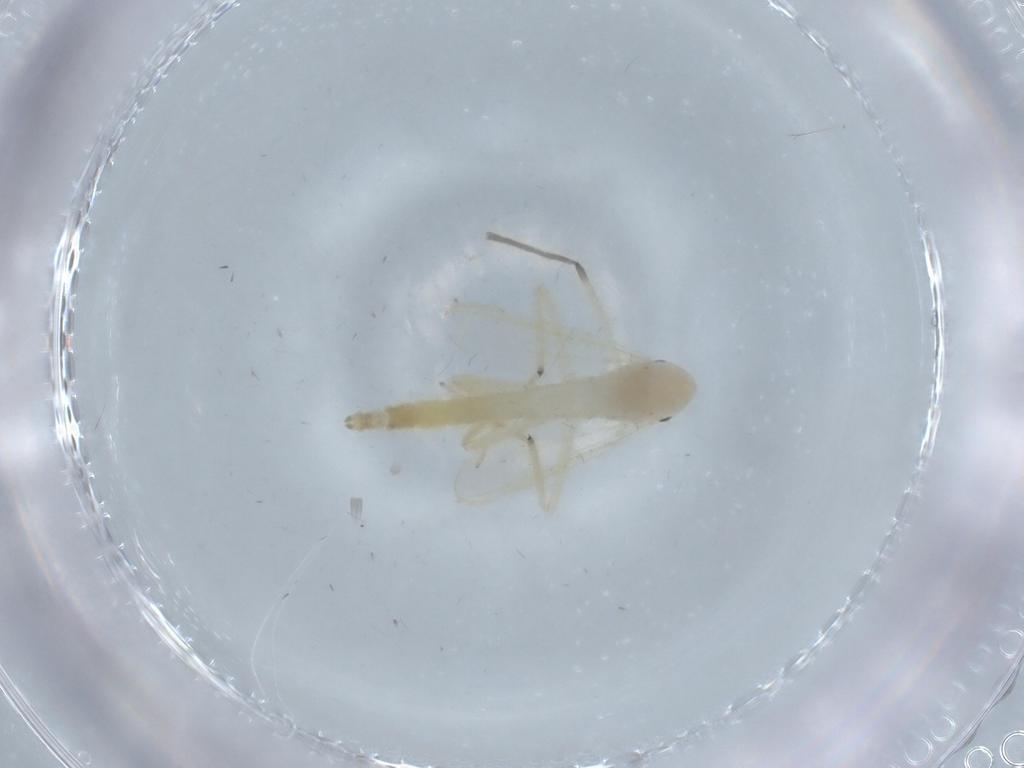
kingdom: Animalia
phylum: Arthropoda
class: Insecta
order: Diptera
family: Chironomidae
